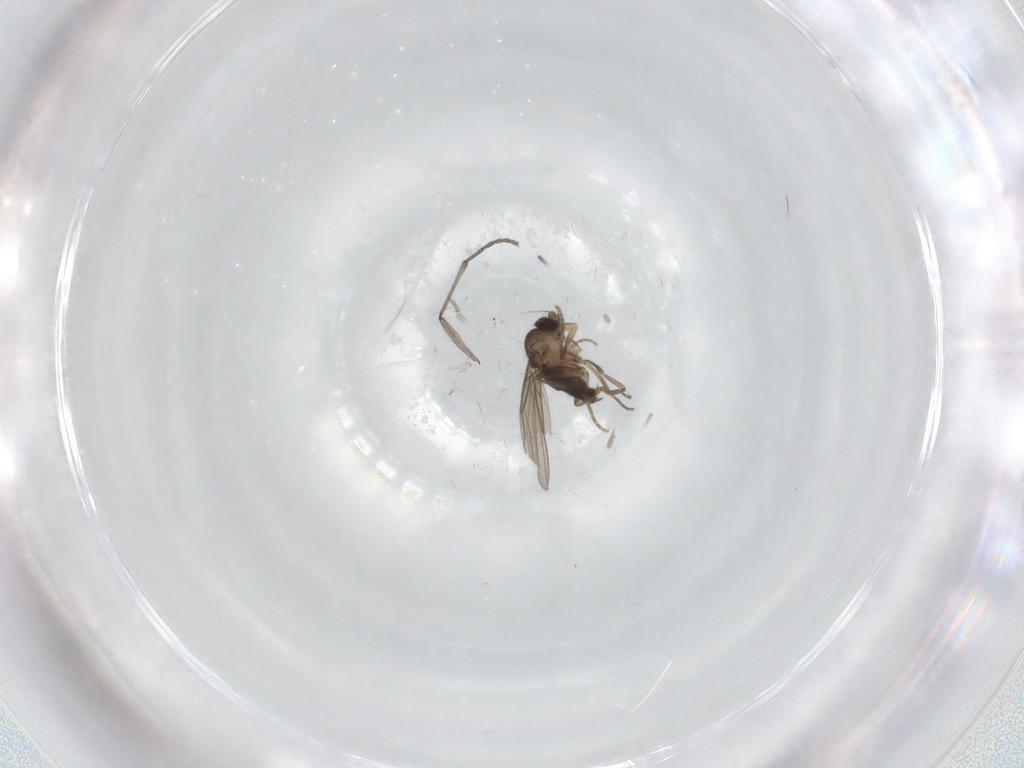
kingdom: Animalia
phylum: Arthropoda
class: Insecta
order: Diptera
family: Phoridae
